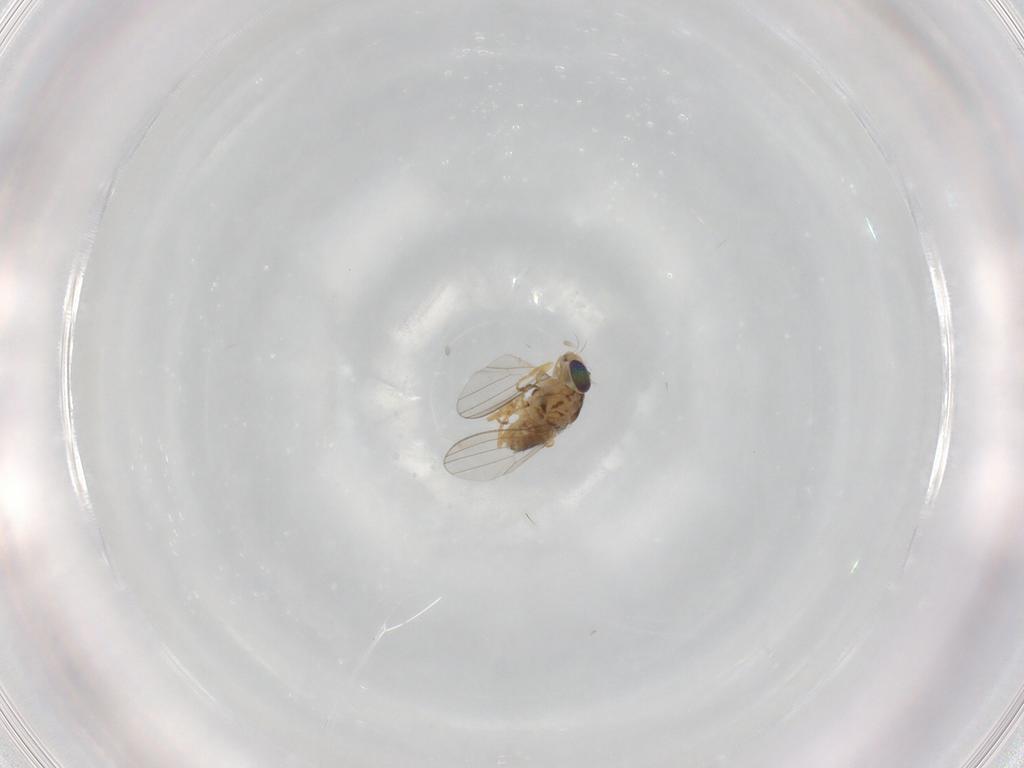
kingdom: Animalia
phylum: Arthropoda
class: Insecta
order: Diptera
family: Chyromyidae
